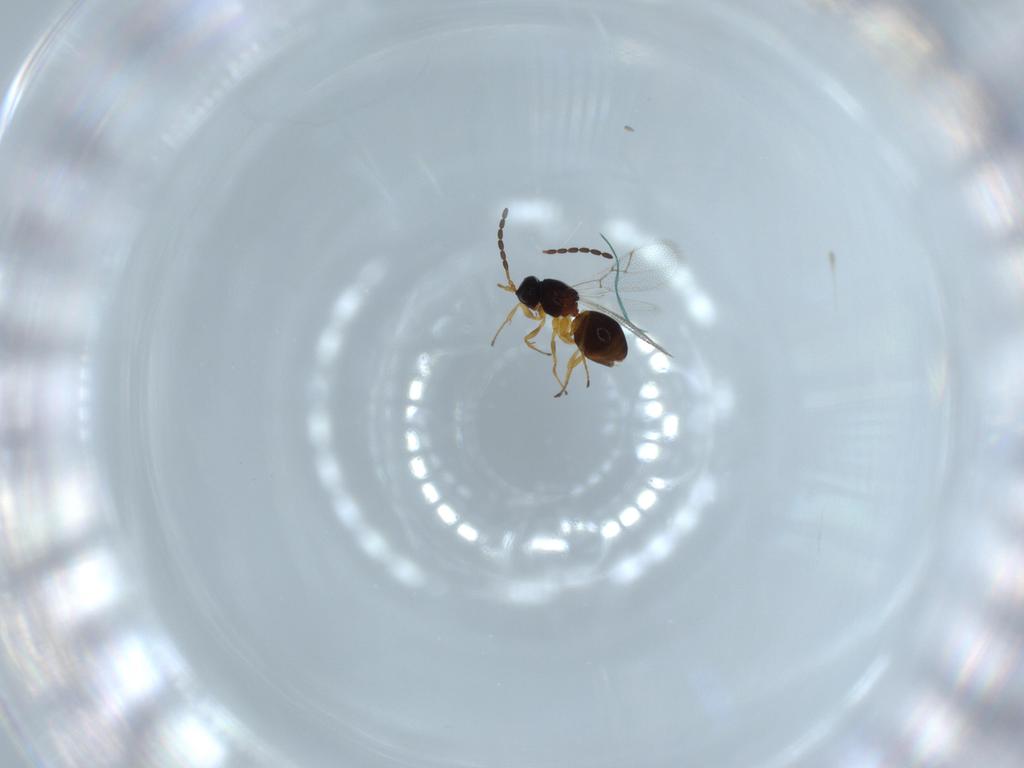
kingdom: Animalia
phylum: Arthropoda
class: Insecta
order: Hymenoptera
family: Figitidae
